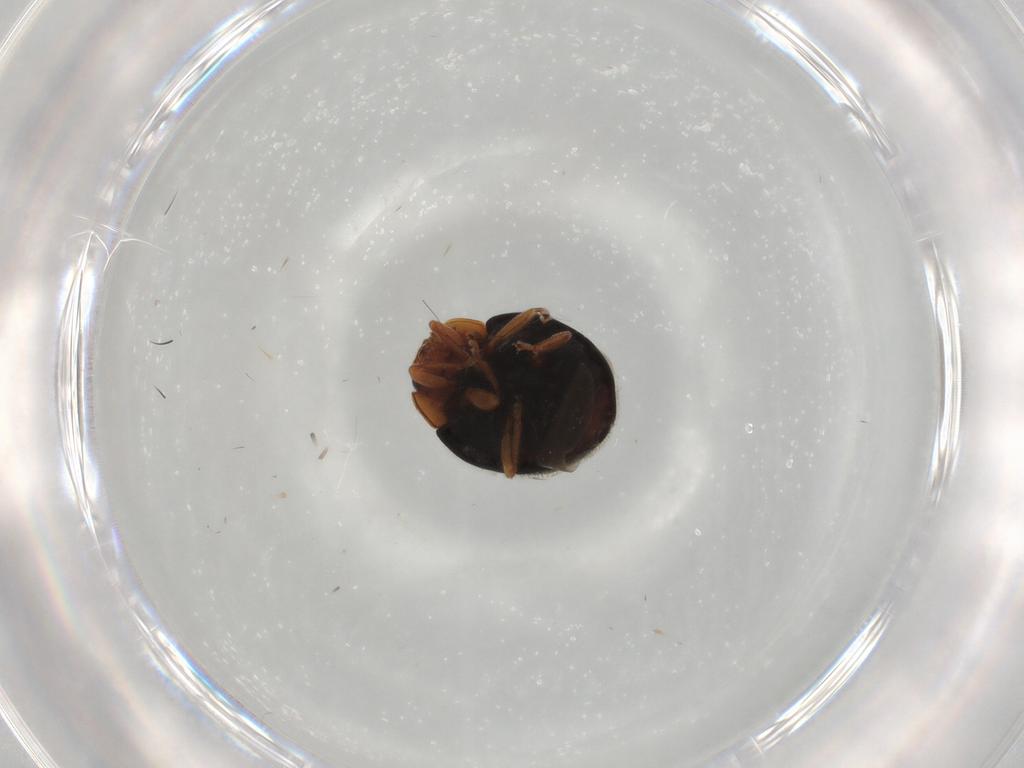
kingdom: Animalia
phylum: Arthropoda
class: Insecta
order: Coleoptera
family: Coccinellidae
